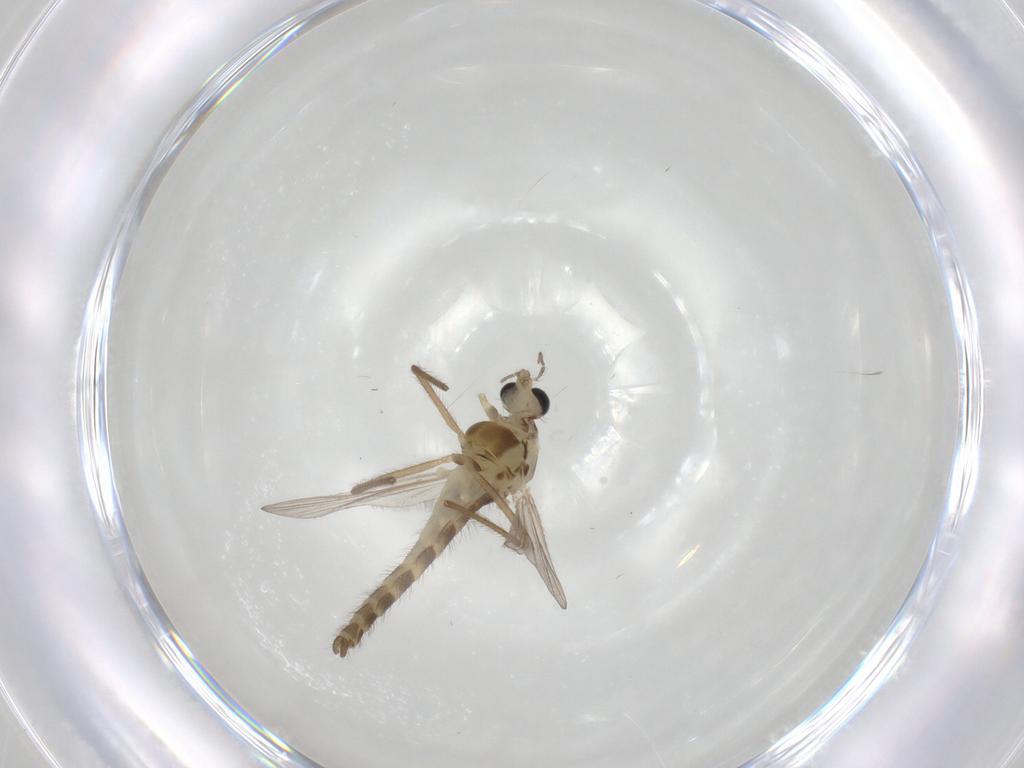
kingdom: Animalia
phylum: Arthropoda
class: Insecta
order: Diptera
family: Chironomidae
